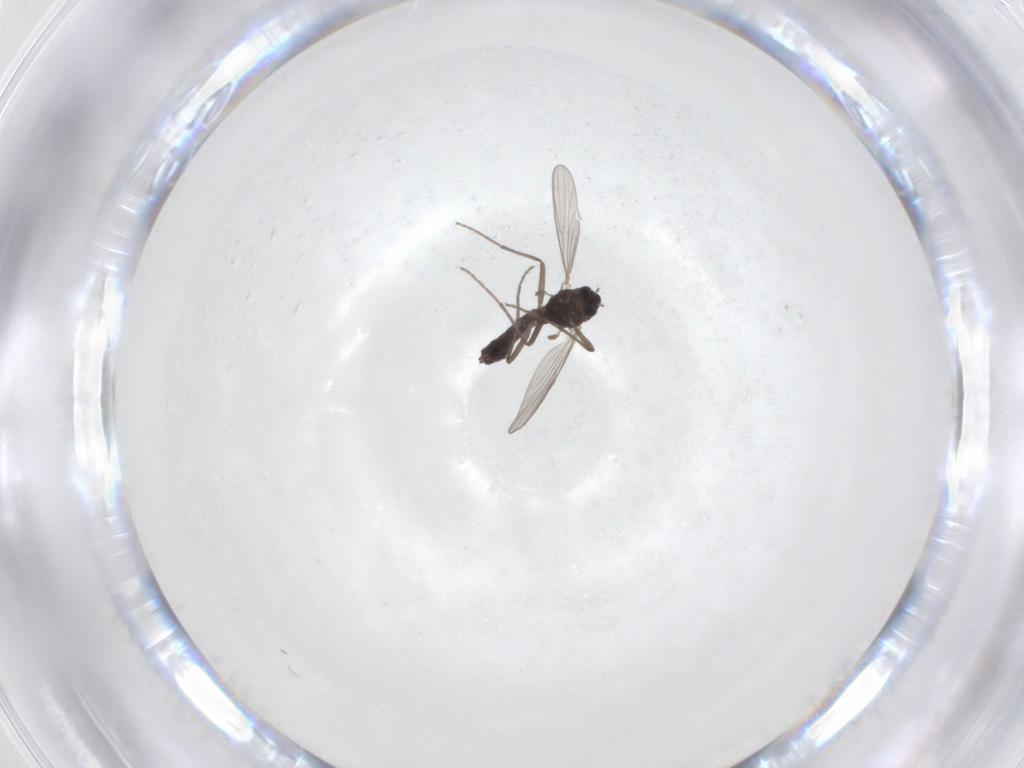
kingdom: Animalia
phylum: Arthropoda
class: Insecta
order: Diptera
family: Chironomidae
